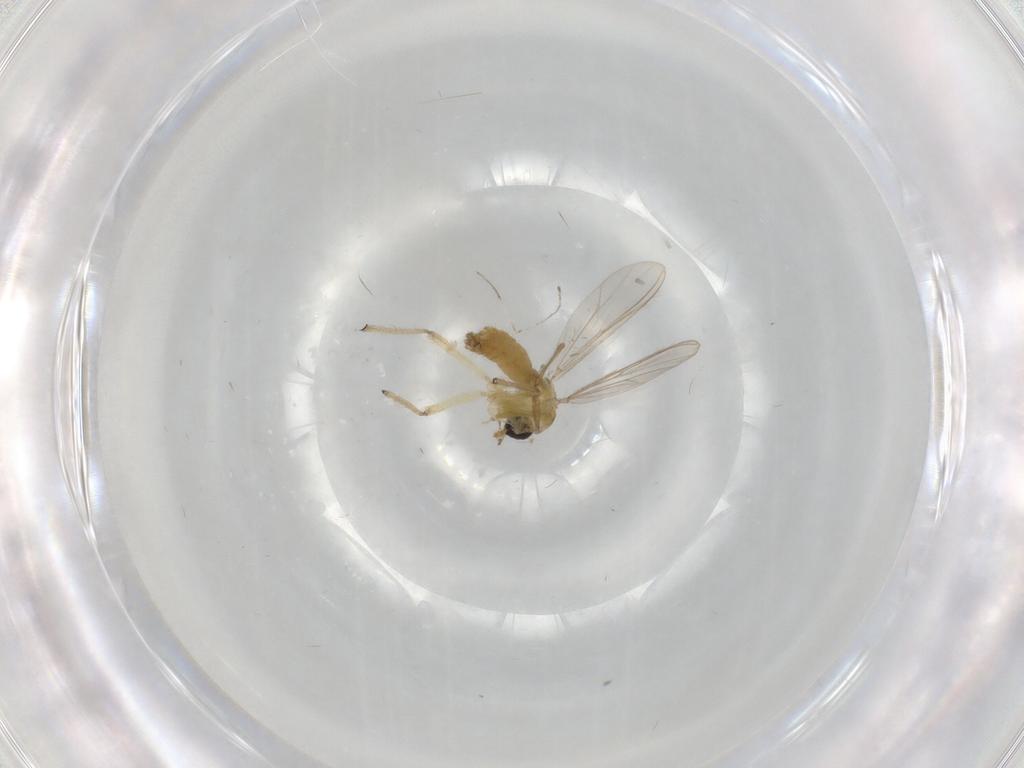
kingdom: Animalia
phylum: Arthropoda
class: Insecta
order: Diptera
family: Chironomidae
